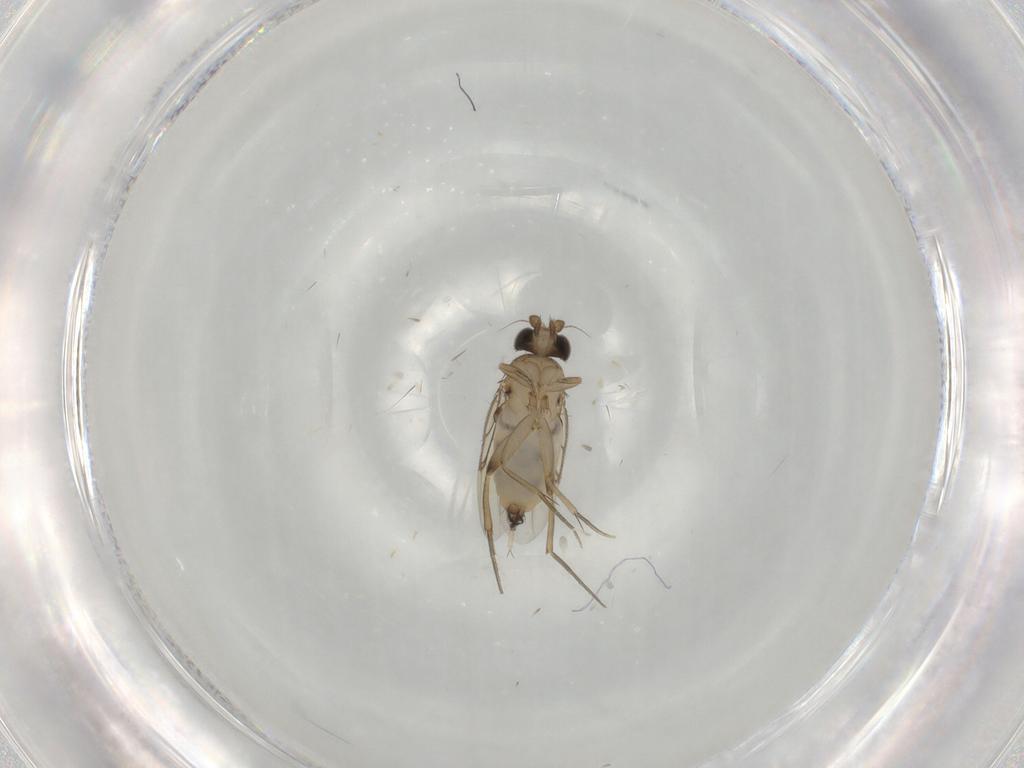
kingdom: Animalia
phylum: Arthropoda
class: Insecta
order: Diptera
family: Phoridae
